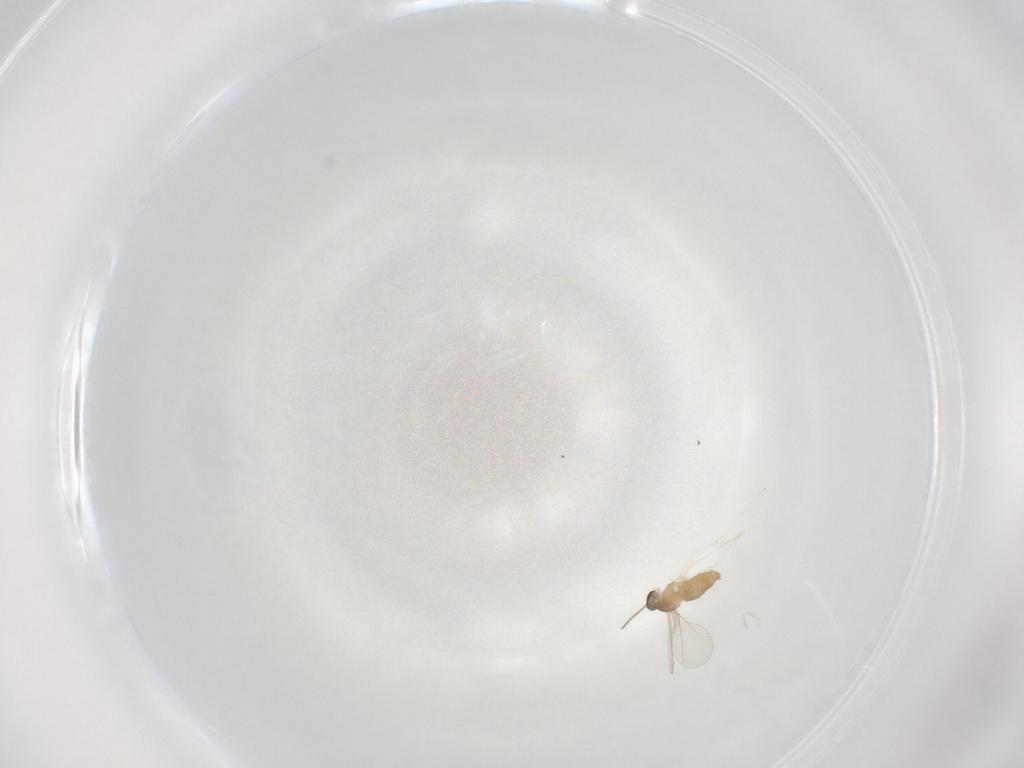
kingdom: Animalia
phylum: Arthropoda
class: Insecta
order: Diptera
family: Cecidomyiidae
